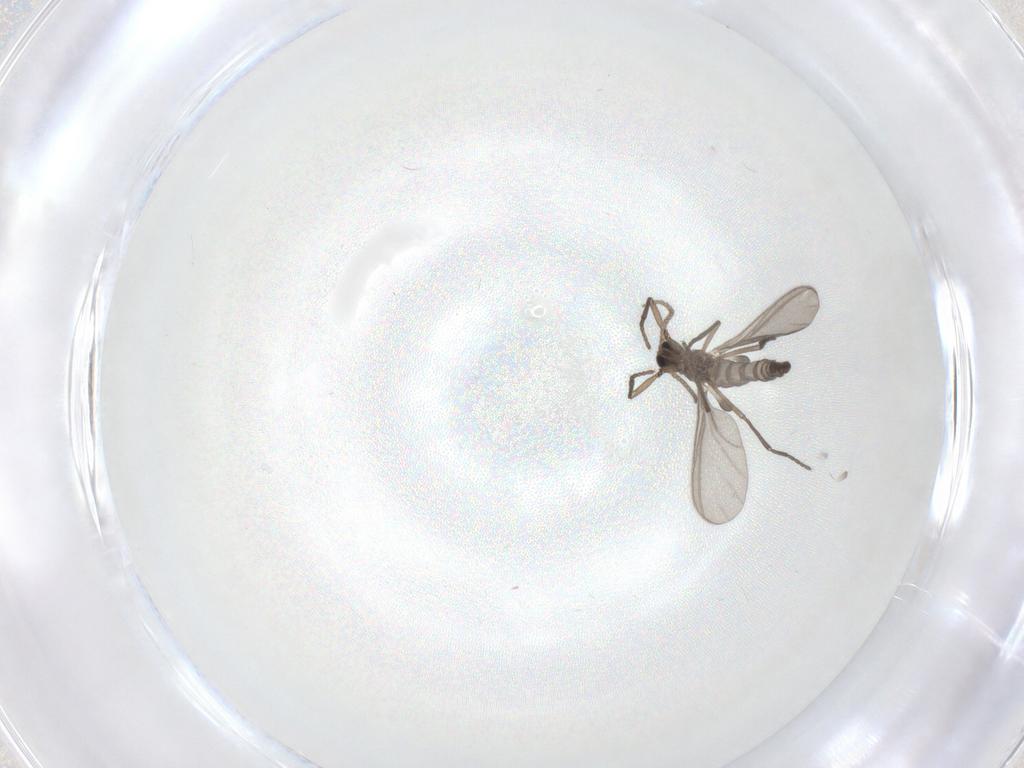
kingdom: Animalia
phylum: Arthropoda
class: Insecta
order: Diptera
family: Sciaridae
